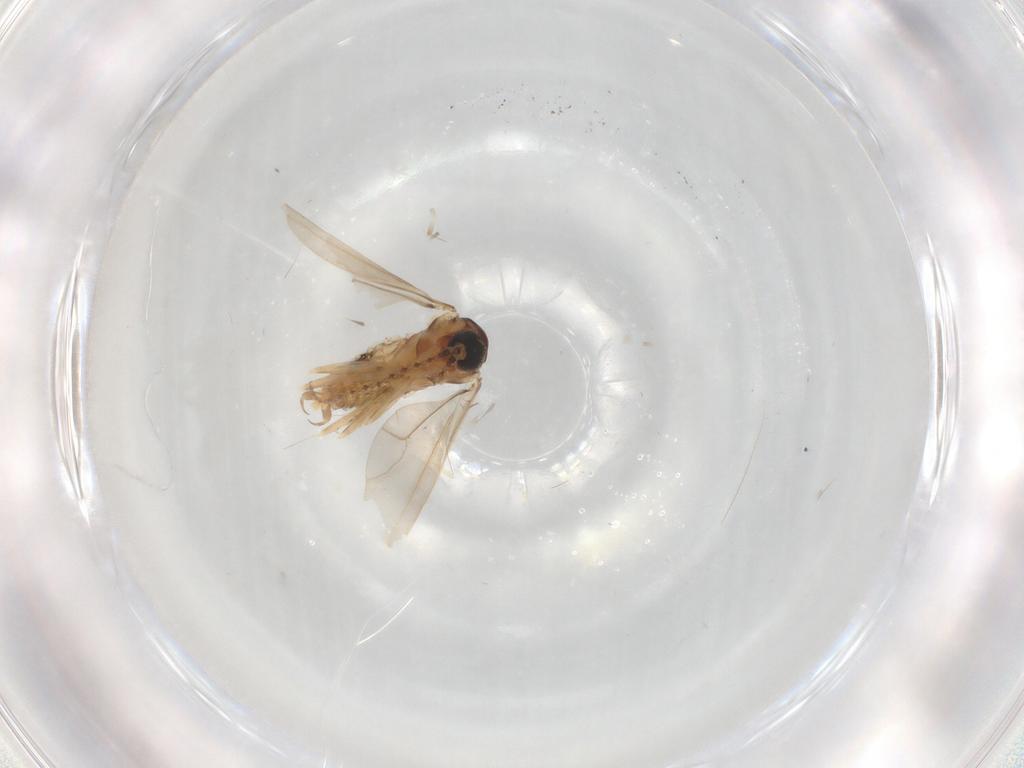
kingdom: Animalia
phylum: Arthropoda
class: Insecta
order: Diptera
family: Cecidomyiidae
